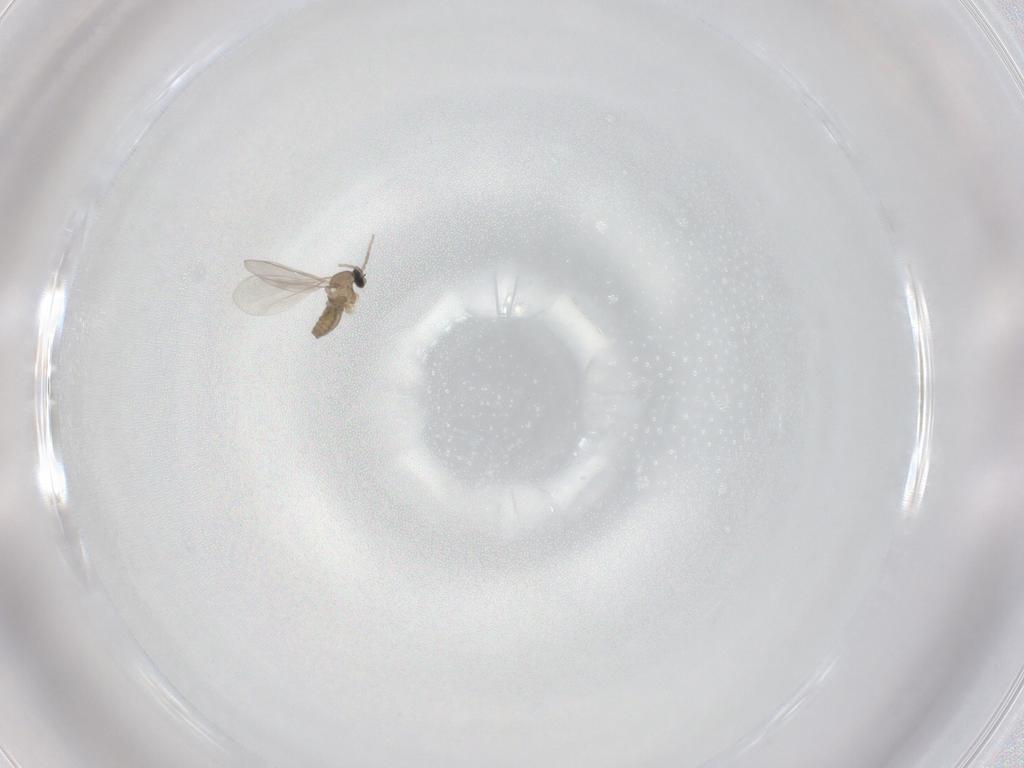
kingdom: Animalia
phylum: Arthropoda
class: Insecta
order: Diptera
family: Cecidomyiidae
